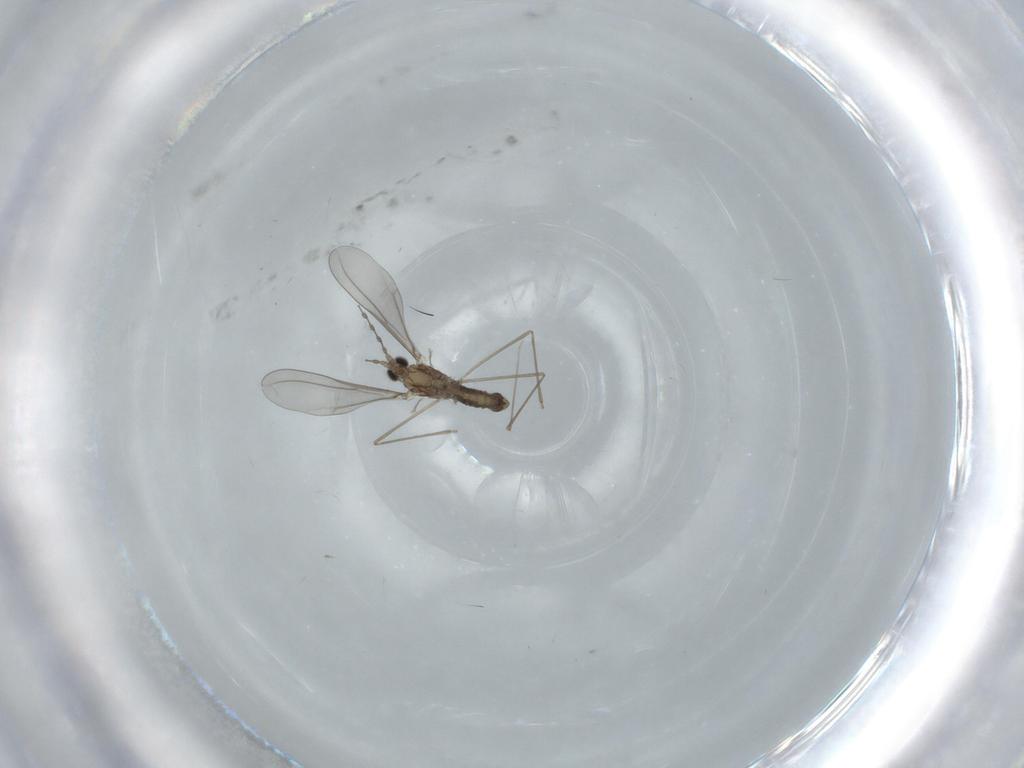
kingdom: Animalia
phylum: Arthropoda
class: Insecta
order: Diptera
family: Cecidomyiidae
